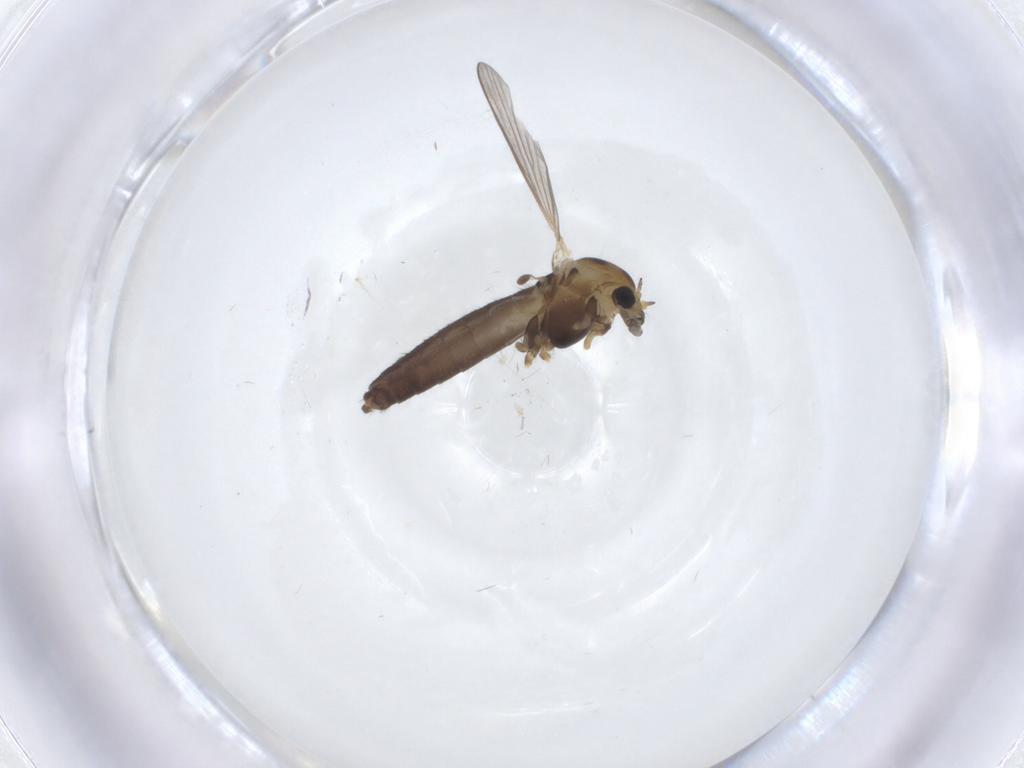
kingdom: Animalia
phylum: Arthropoda
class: Insecta
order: Diptera
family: Chironomidae
